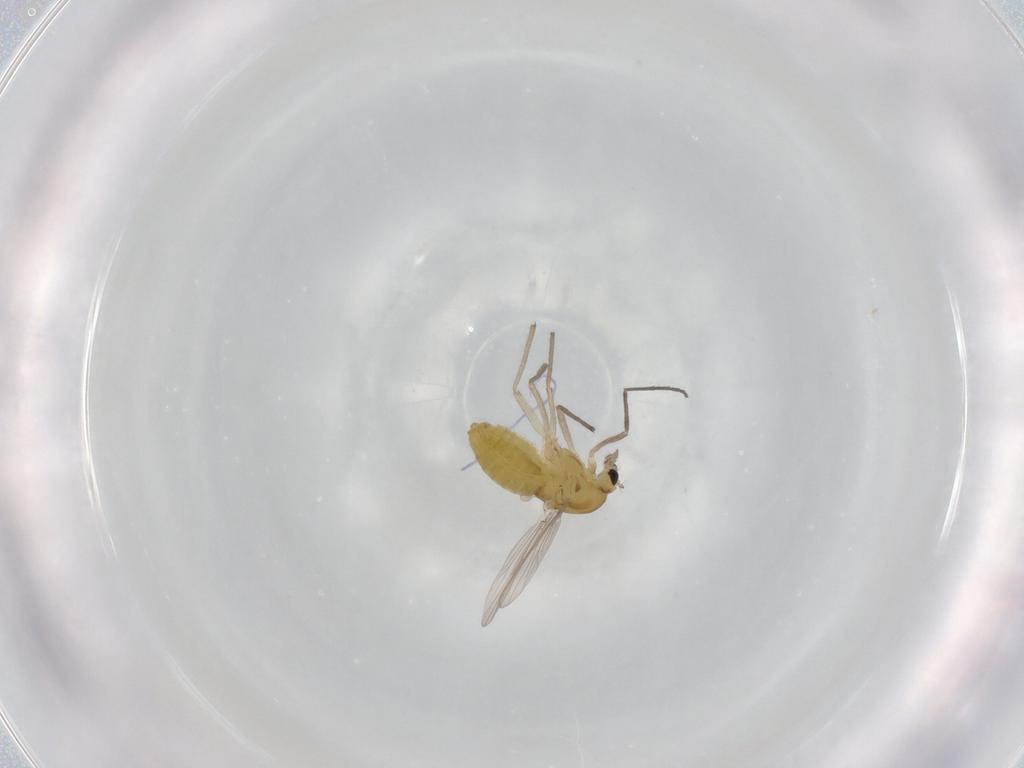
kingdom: Animalia
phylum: Arthropoda
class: Insecta
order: Diptera
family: Chironomidae
